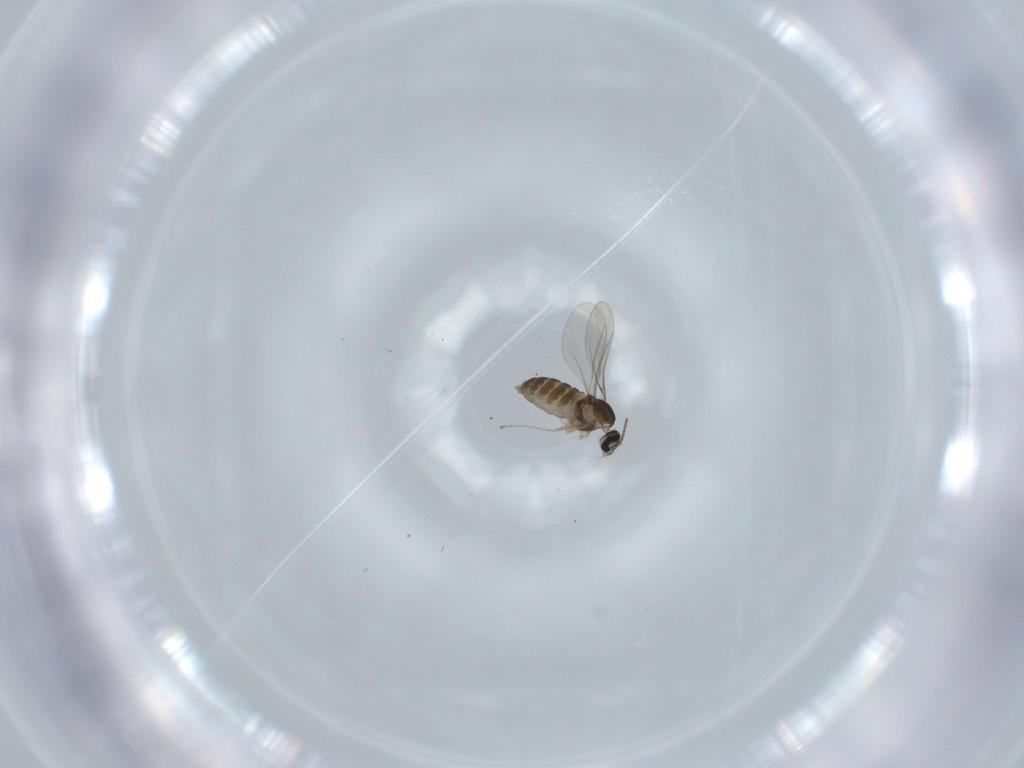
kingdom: Animalia
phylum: Arthropoda
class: Insecta
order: Diptera
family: Cecidomyiidae
